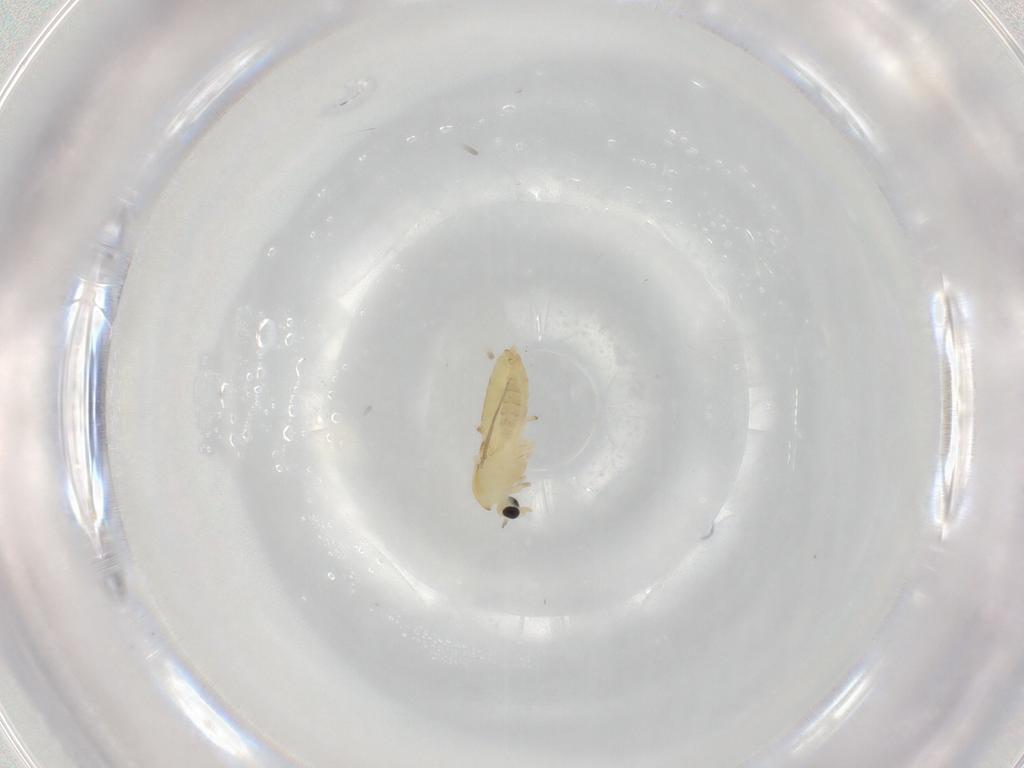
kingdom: Animalia
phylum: Arthropoda
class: Insecta
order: Diptera
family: Chironomidae
